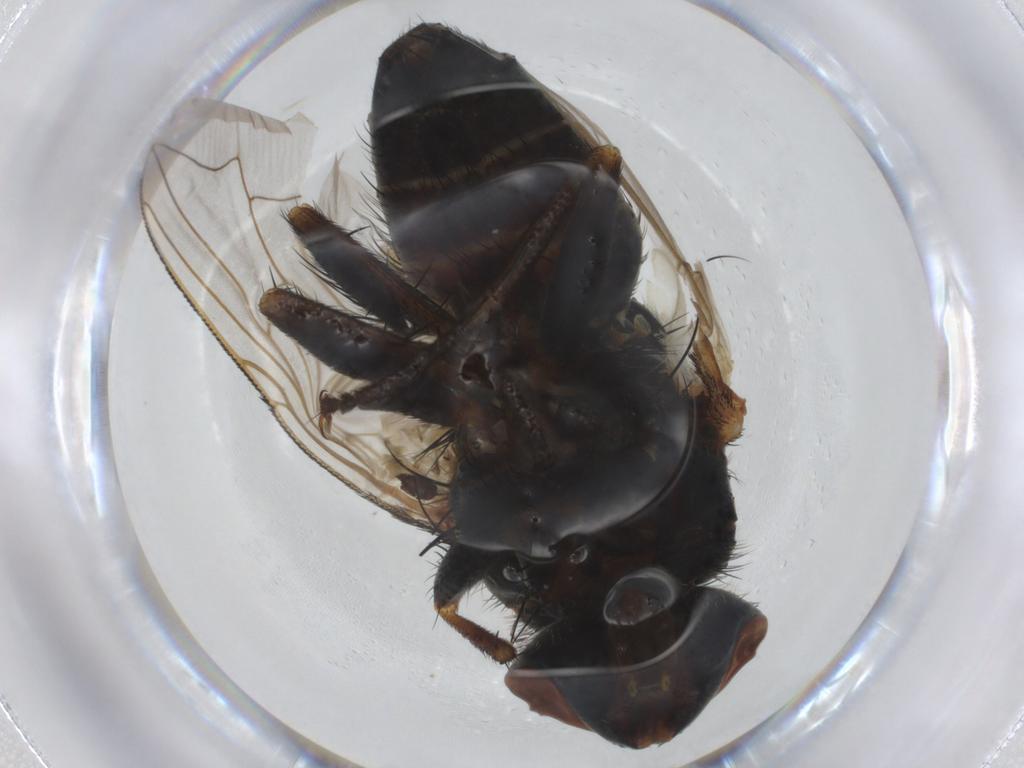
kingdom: Animalia
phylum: Arthropoda
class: Insecta
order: Diptera
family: Sarcophagidae
